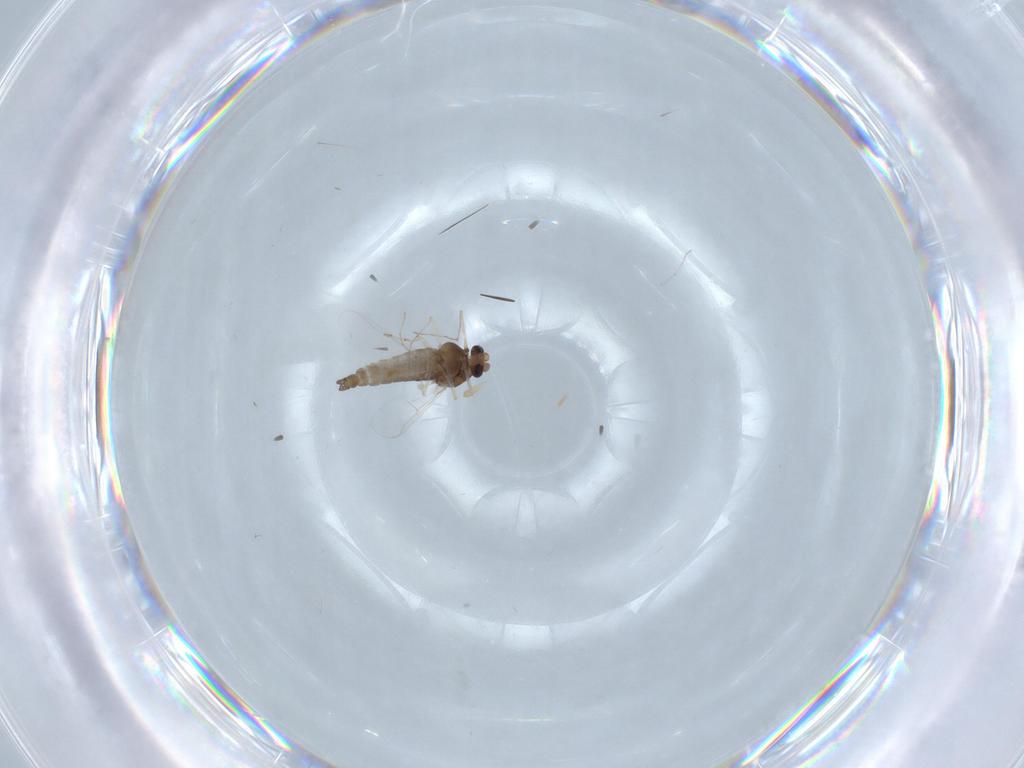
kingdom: Animalia
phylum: Arthropoda
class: Insecta
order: Diptera
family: Chironomidae
